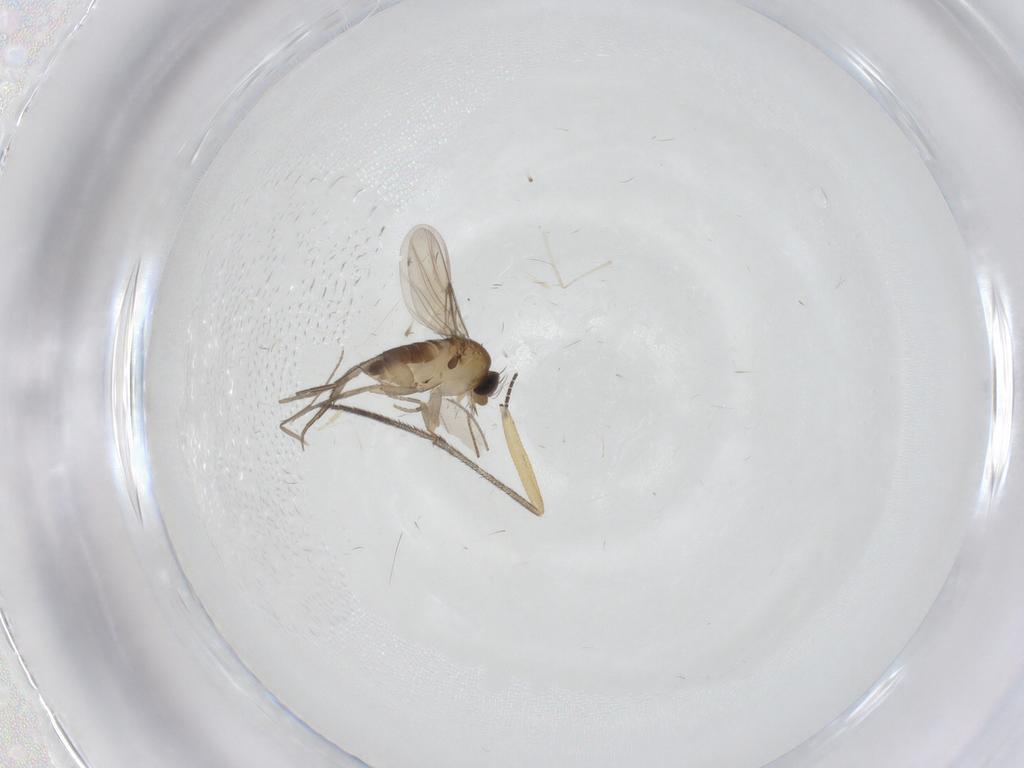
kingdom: Animalia
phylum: Arthropoda
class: Insecta
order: Diptera
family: Phoridae
